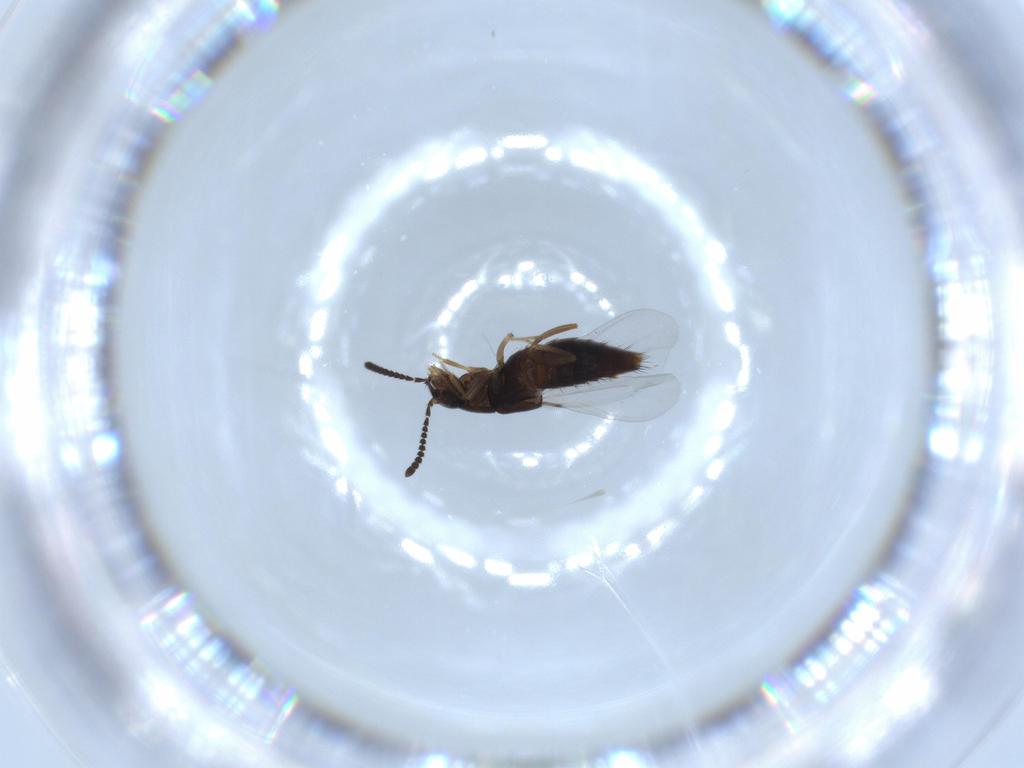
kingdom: Animalia
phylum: Arthropoda
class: Insecta
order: Coleoptera
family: Staphylinidae
